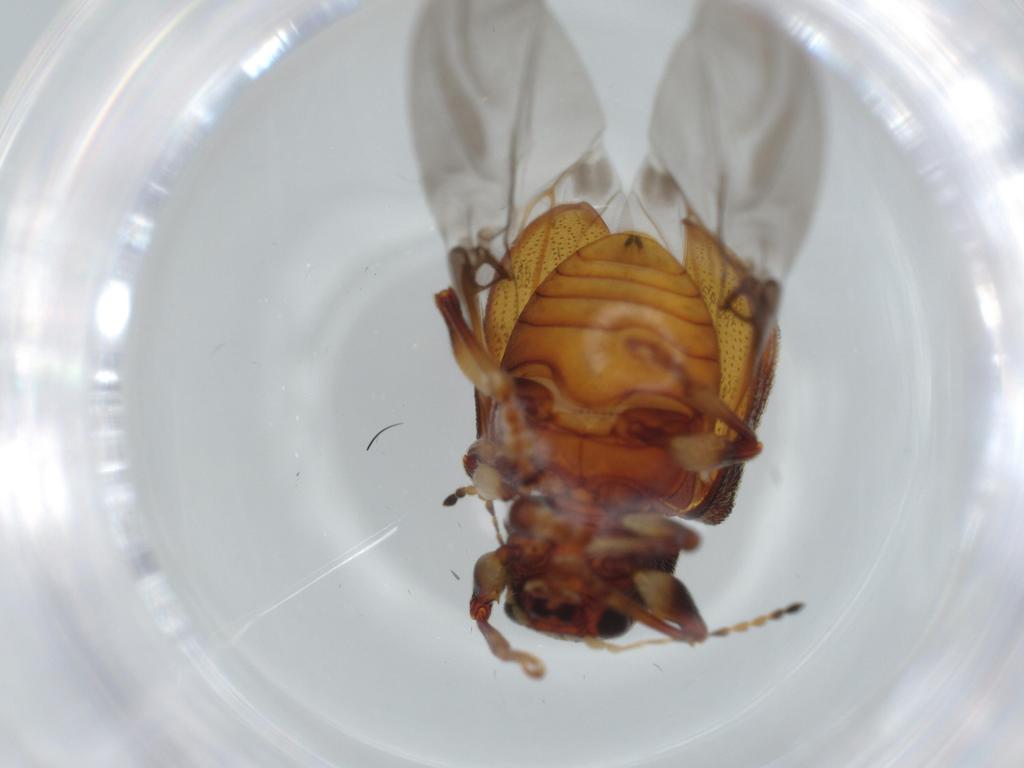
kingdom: Animalia
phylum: Arthropoda
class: Insecta
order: Coleoptera
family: Chrysomelidae
